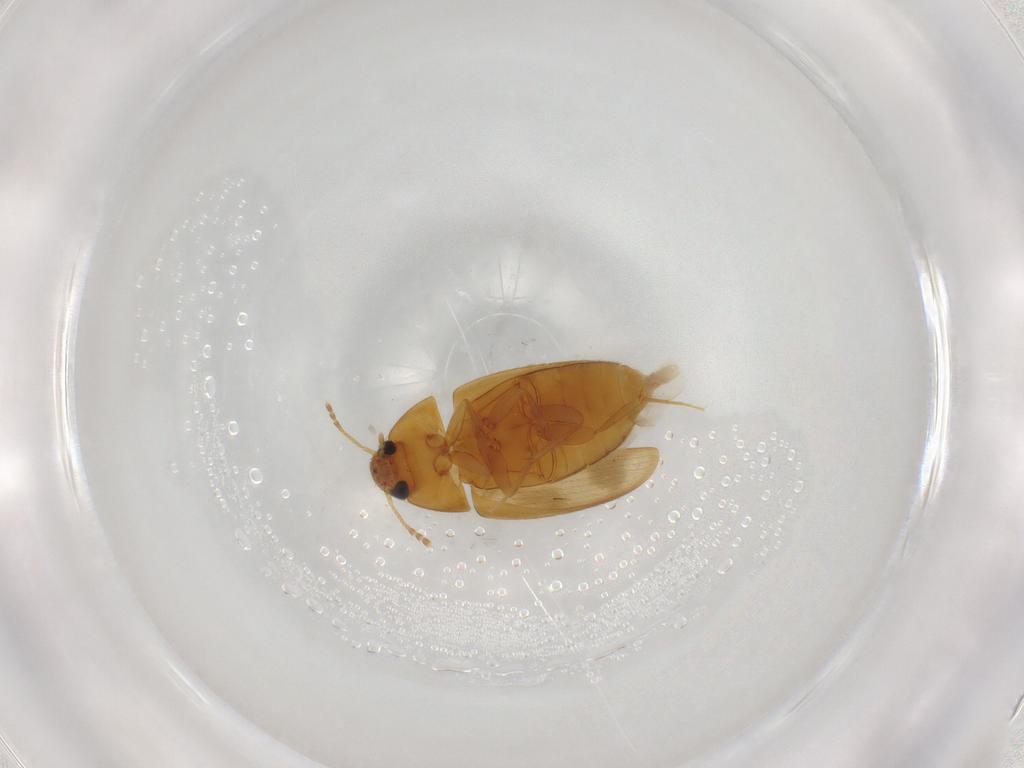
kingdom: Animalia
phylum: Arthropoda
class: Insecta
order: Coleoptera
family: Mycetophagidae
